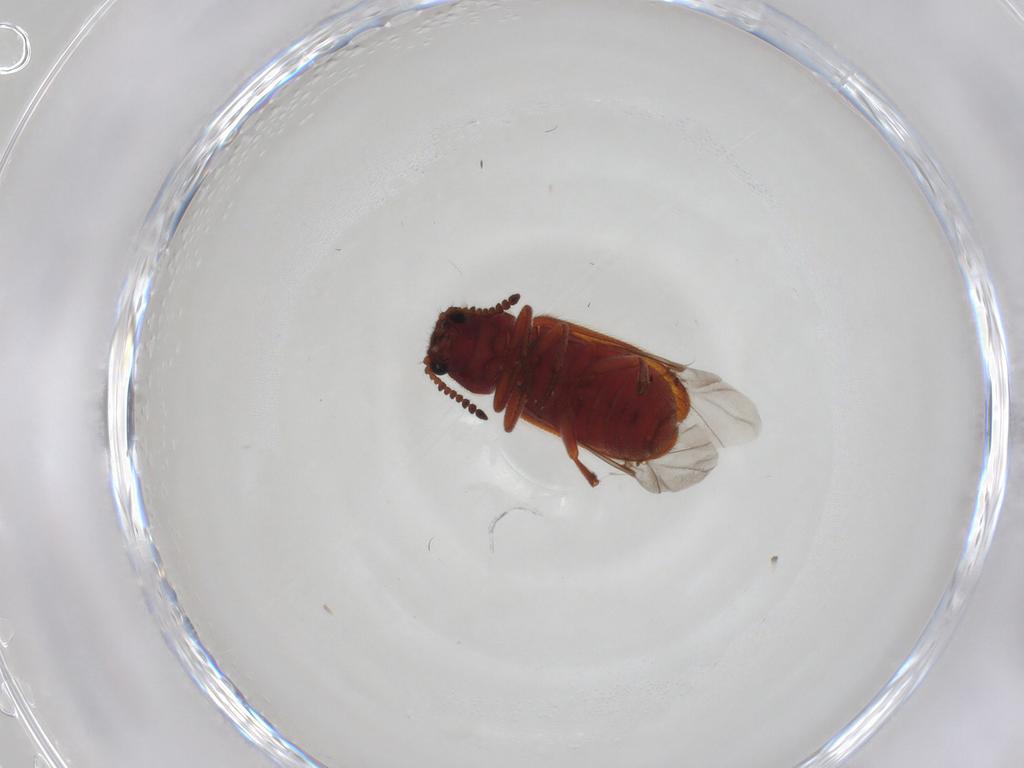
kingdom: Animalia
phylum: Arthropoda
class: Insecta
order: Coleoptera
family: Melyridae
